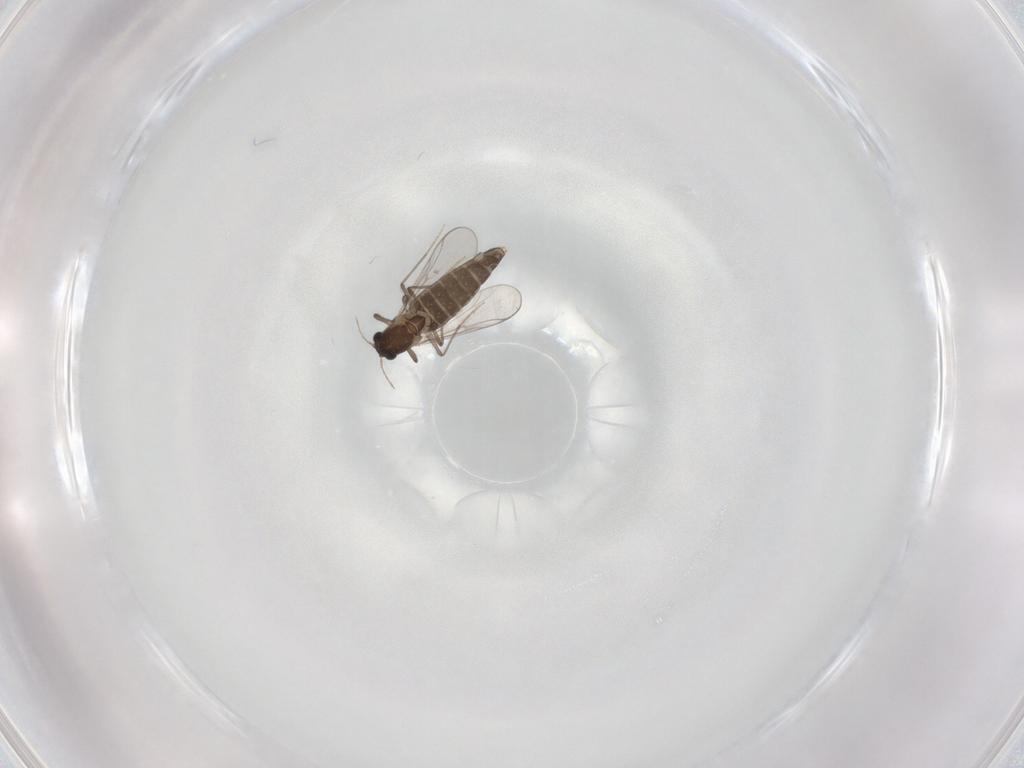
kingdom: Animalia
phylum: Arthropoda
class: Insecta
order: Diptera
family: Chironomidae
